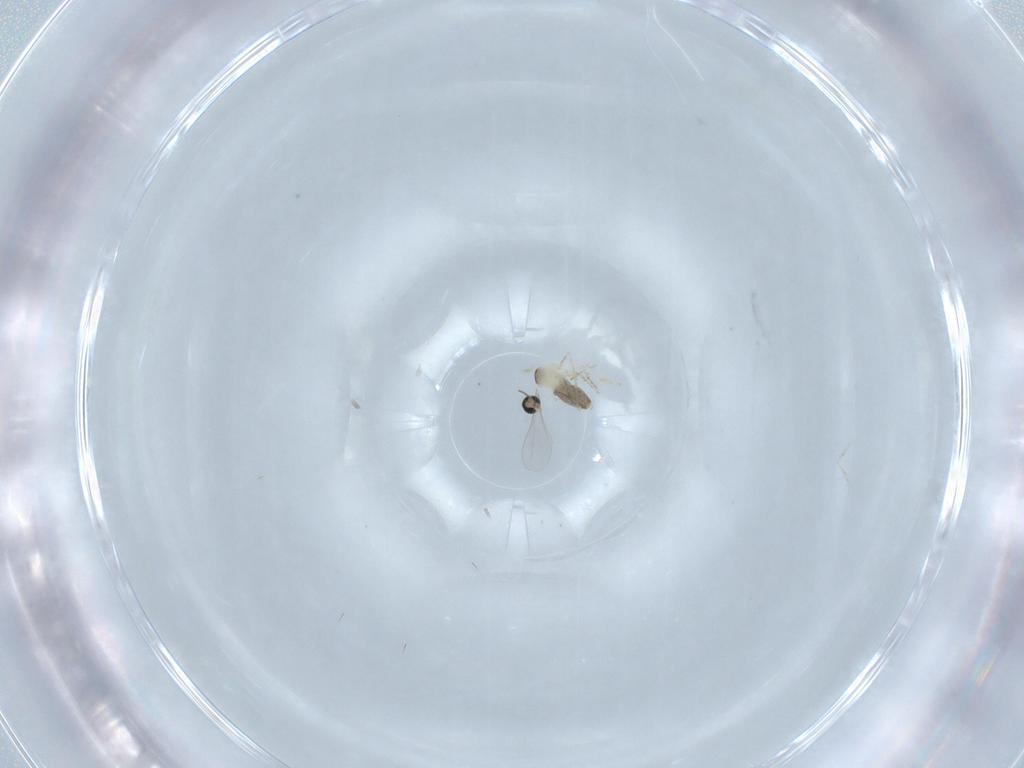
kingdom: Animalia
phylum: Arthropoda
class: Insecta
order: Diptera
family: Cecidomyiidae
